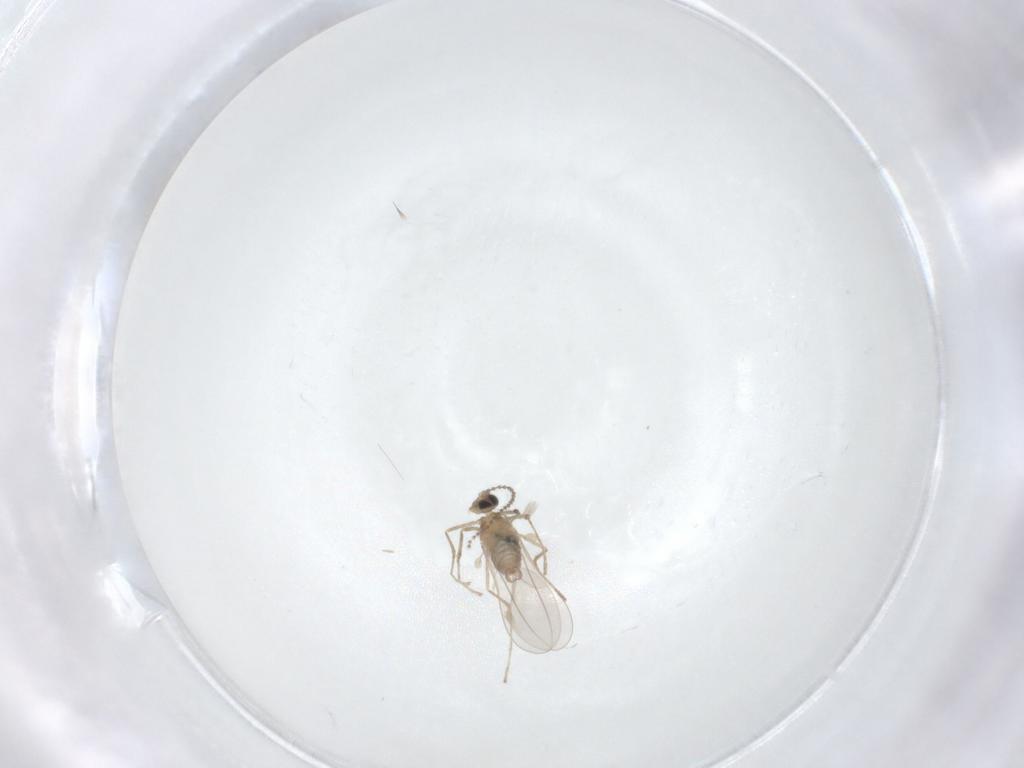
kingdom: Animalia
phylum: Arthropoda
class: Insecta
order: Diptera
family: Cecidomyiidae
